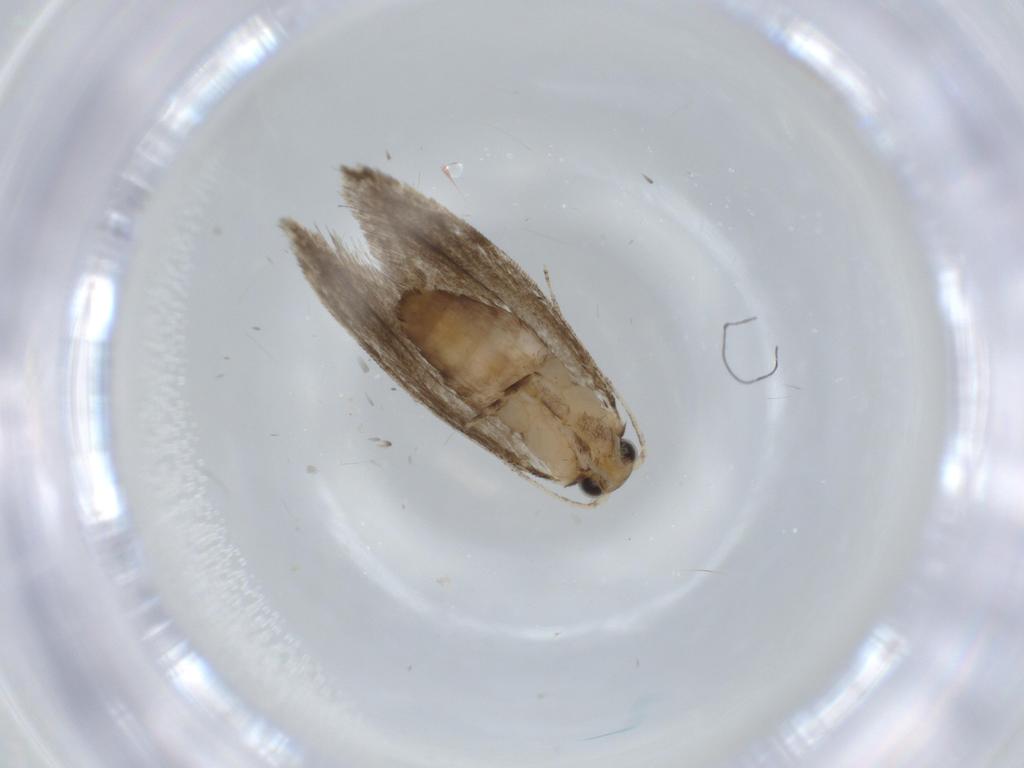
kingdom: Animalia
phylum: Arthropoda
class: Insecta
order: Lepidoptera
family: Tineidae
